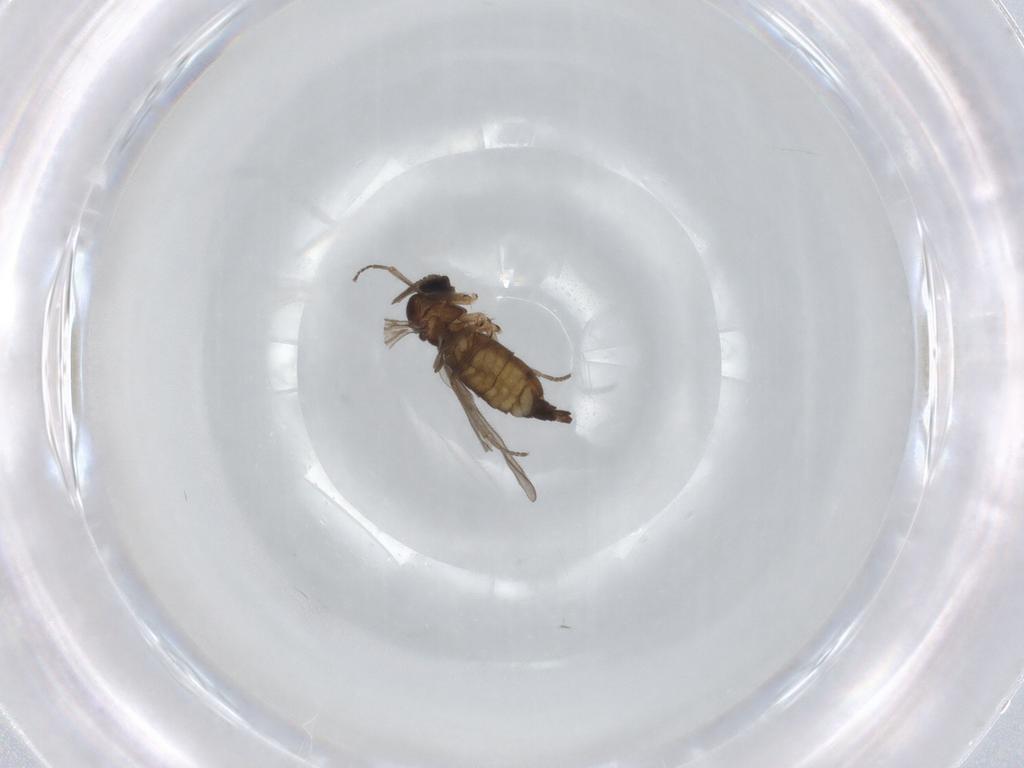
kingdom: Animalia
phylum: Arthropoda
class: Insecta
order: Diptera
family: Sciaridae
